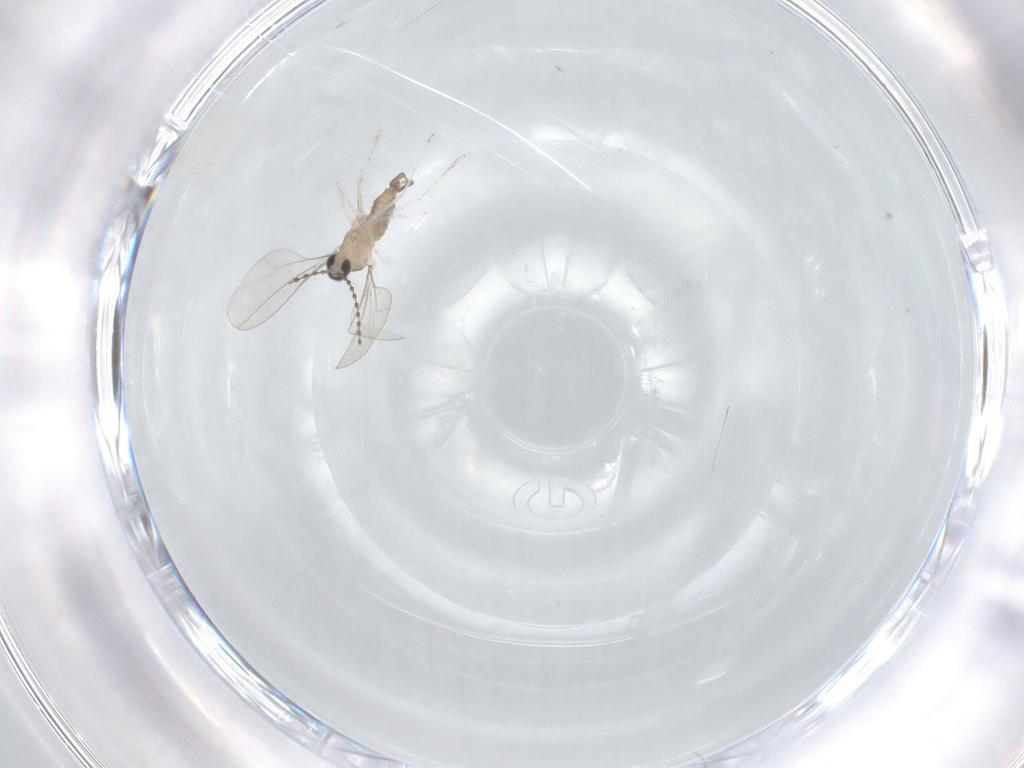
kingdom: Animalia
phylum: Arthropoda
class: Insecta
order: Diptera
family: Cecidomyiidae
